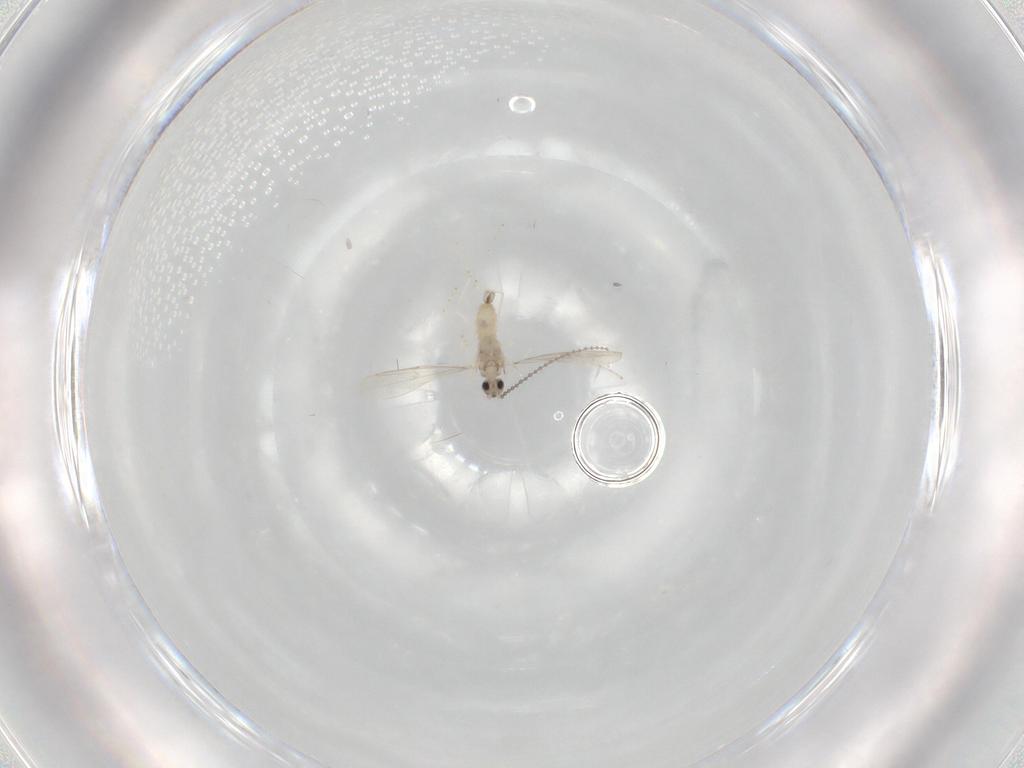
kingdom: Animalia
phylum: Arthropoda
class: Insecta
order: Diptera
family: Cecidomyiidae
